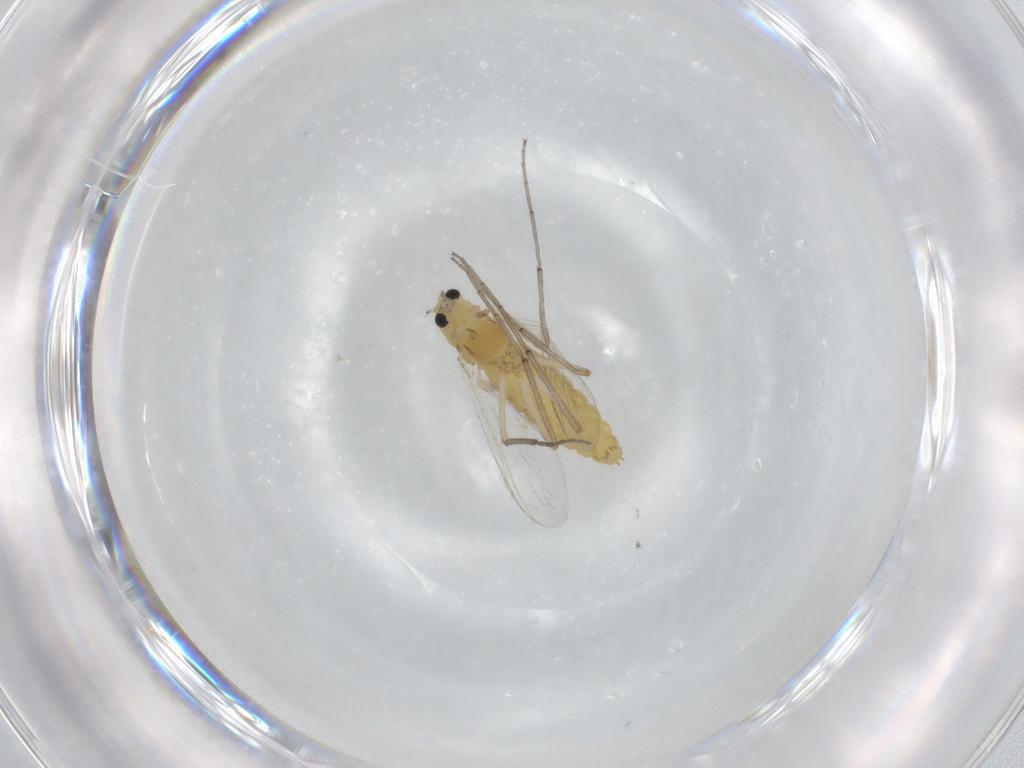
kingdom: Animalia
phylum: Arthropoda
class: Insecta
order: Diptera
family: Chironomidae
